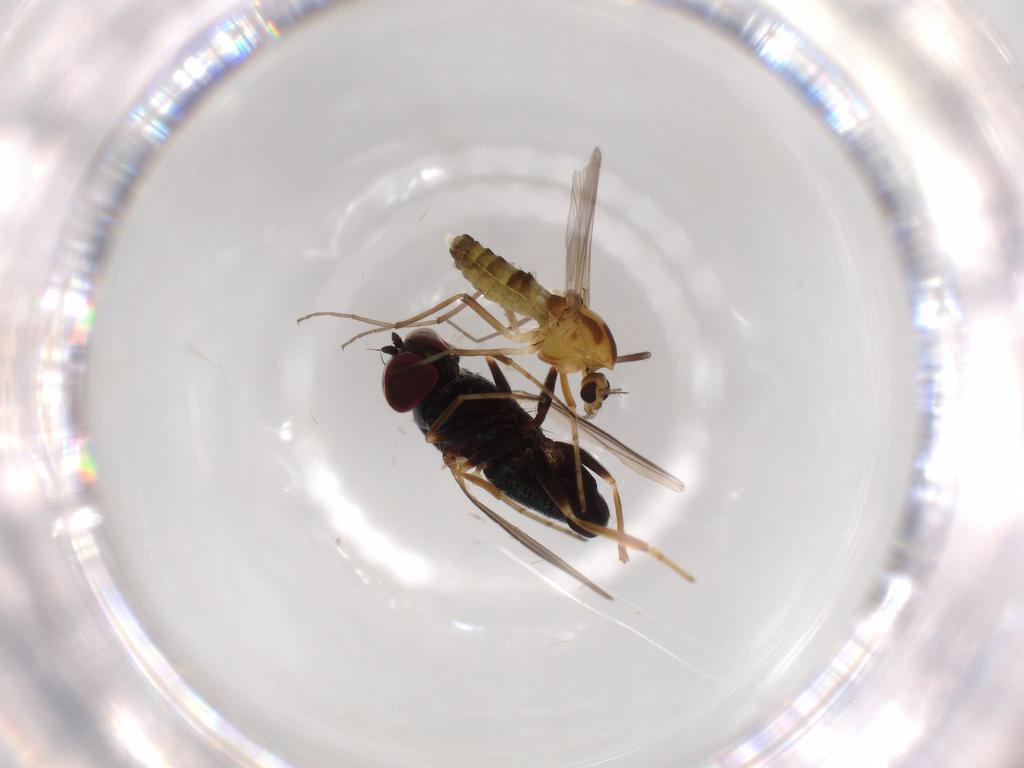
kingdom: Animalia
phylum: Arthropoda
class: Insecta
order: Diptera
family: Dolichopodidae
